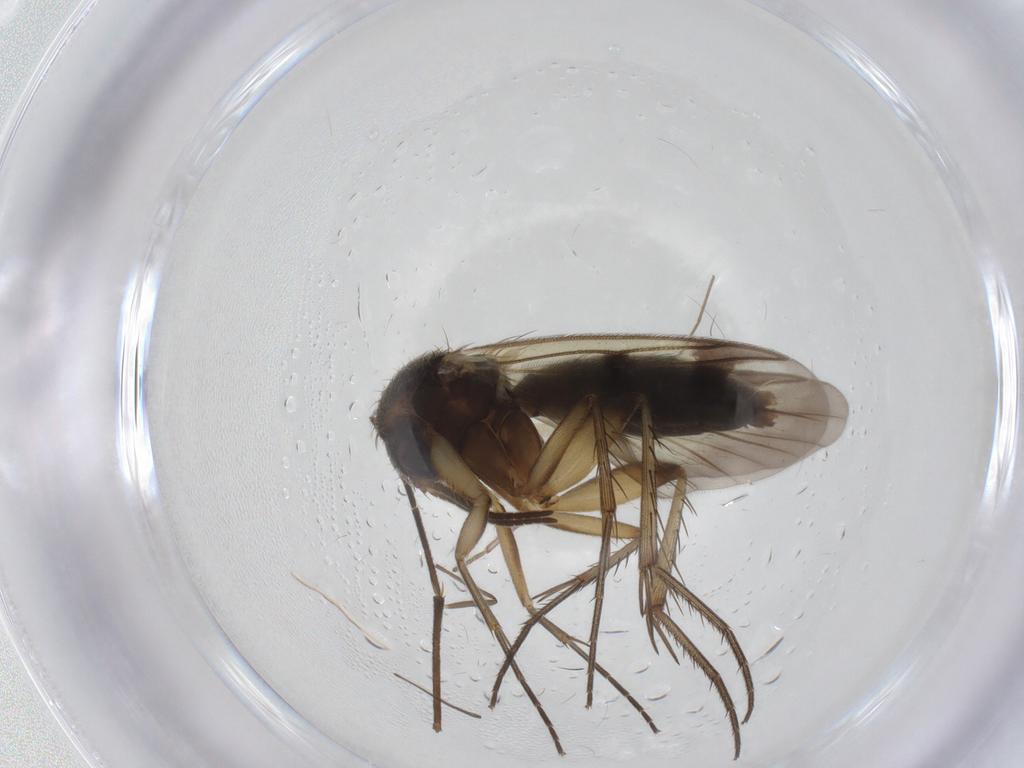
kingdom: Animalia
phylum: Arthropoda
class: Insecta
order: Diptera
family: Mycetophilidae
